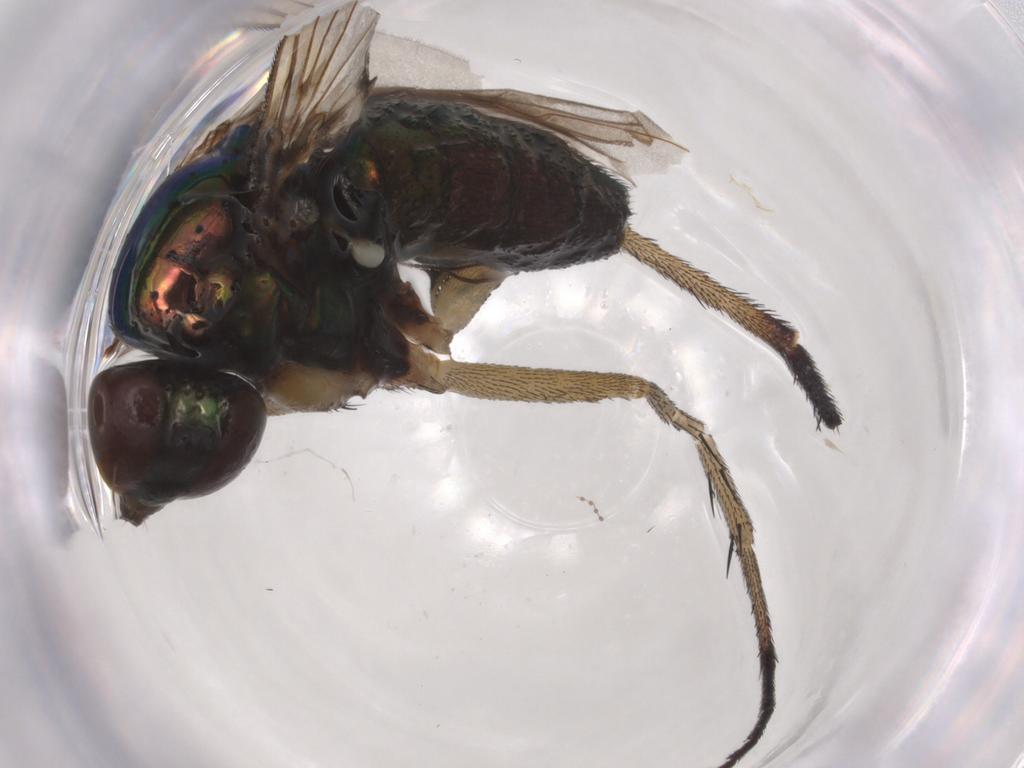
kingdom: Animalia
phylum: Arthropoda
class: Insecta
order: Diptera
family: Dolichopodidae
